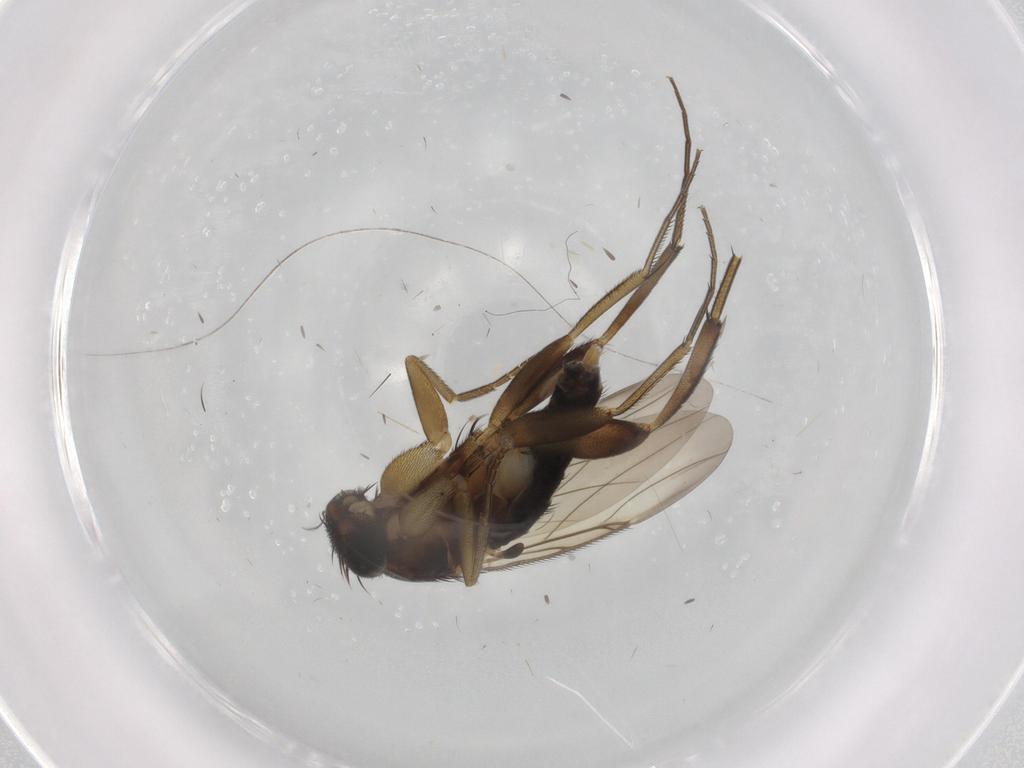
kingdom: Animalia
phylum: Arthropoda
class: Insecta
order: Diptera
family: Phoridae
